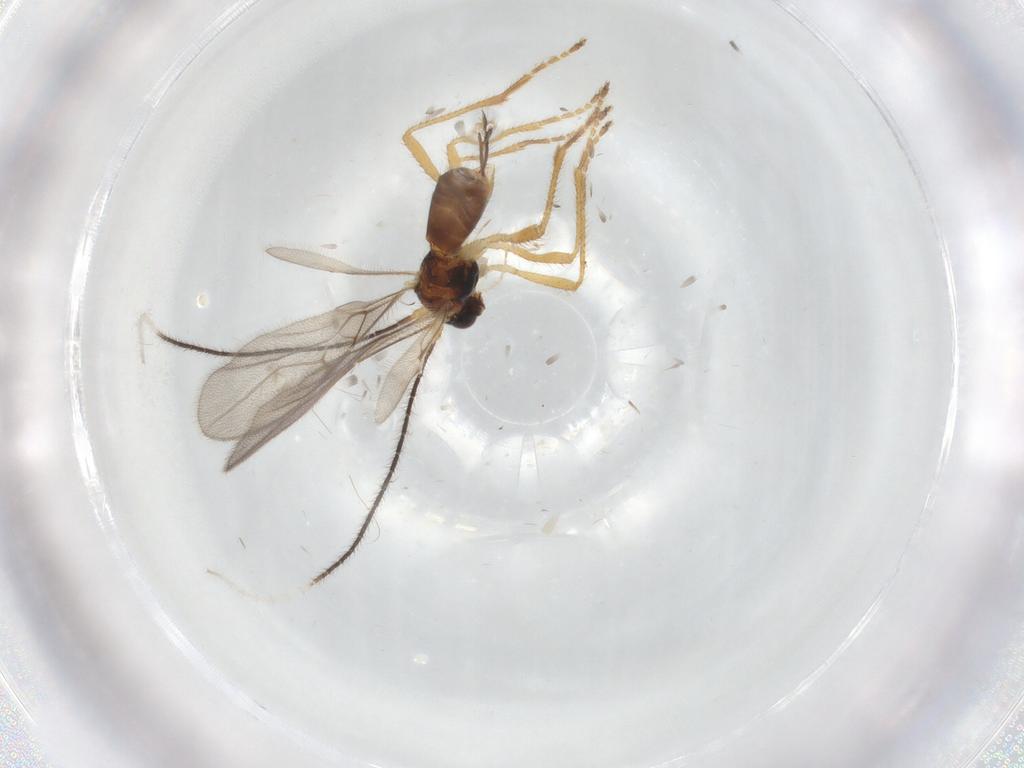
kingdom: Animalia
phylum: Arthropoda
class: Insecta
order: Hymenoptera
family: Braconidae
